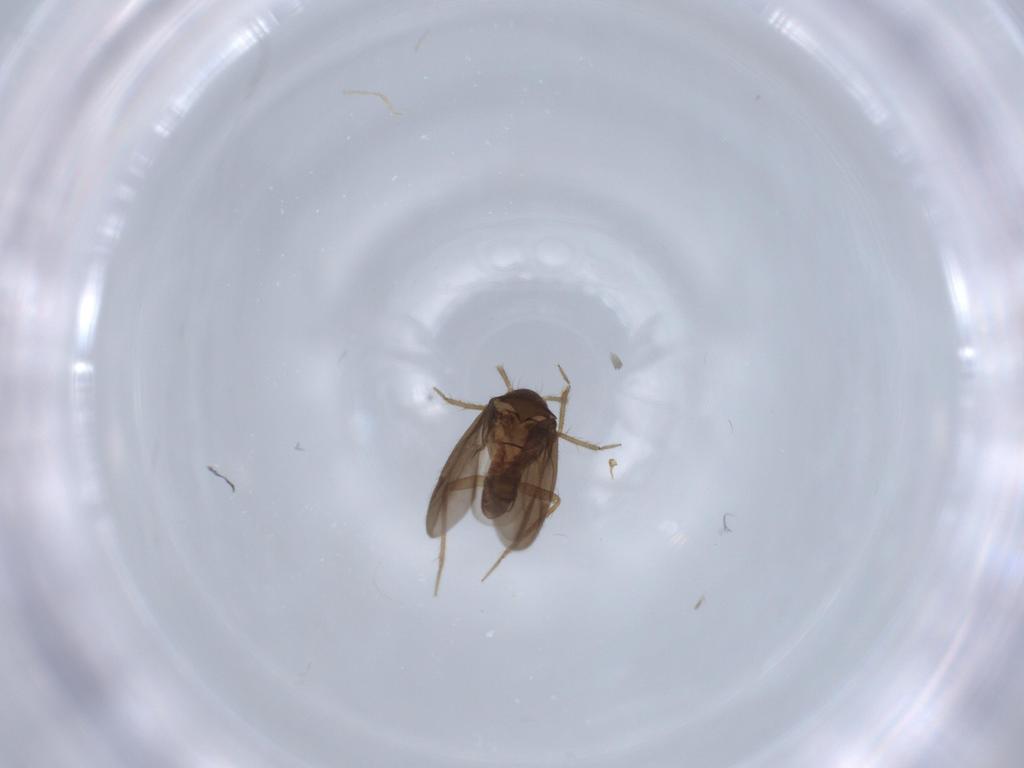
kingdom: Animalia
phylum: Arthropoda
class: Insecta
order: Hemiptera
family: Ceratocombidae
